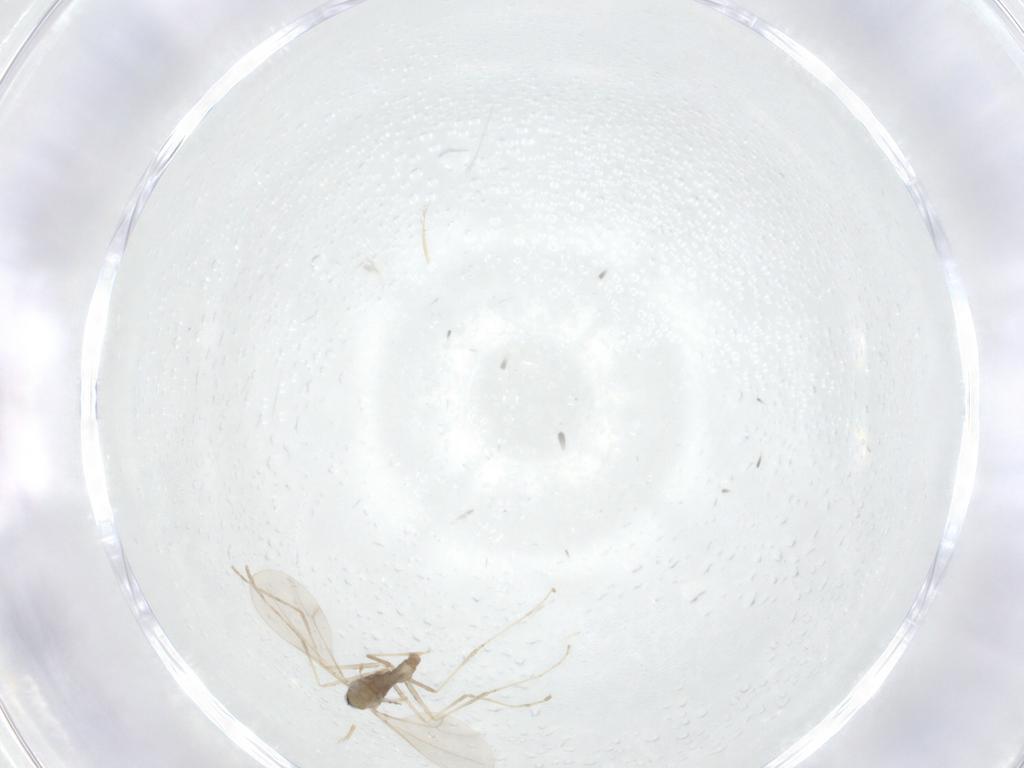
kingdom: Animalia
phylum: Arthropoda
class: Insecta
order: Diptera
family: Cecidomyiidae
